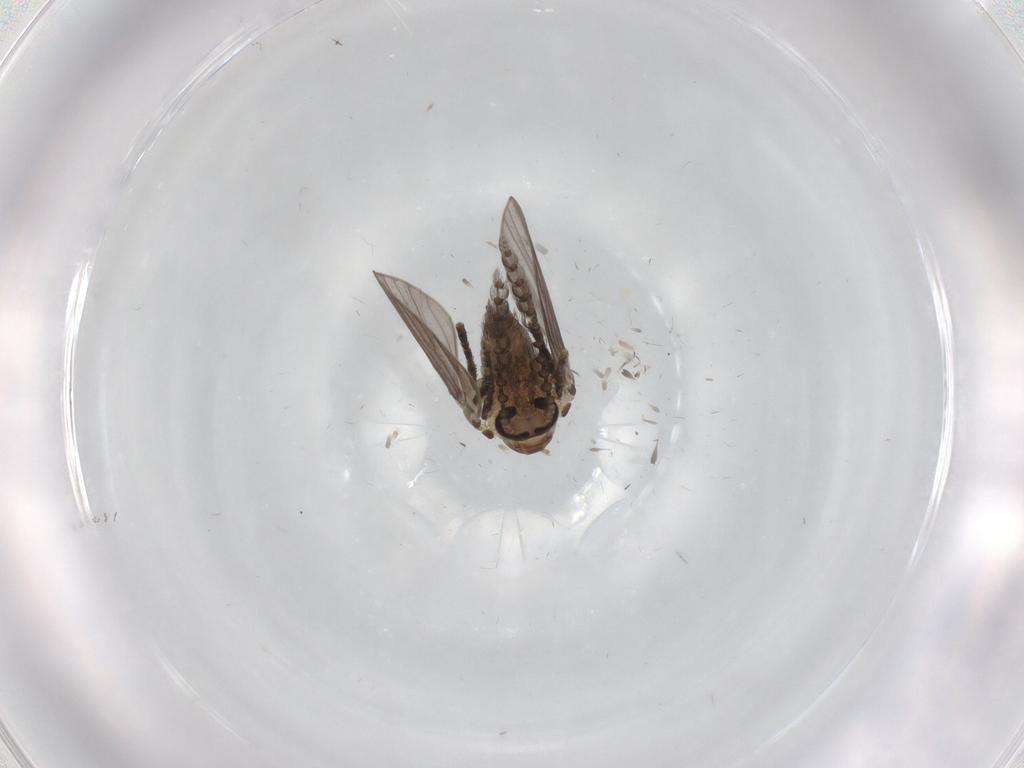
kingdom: Animalia
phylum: Arthropoda
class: Insecta
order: Diptera
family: Psychodidae
